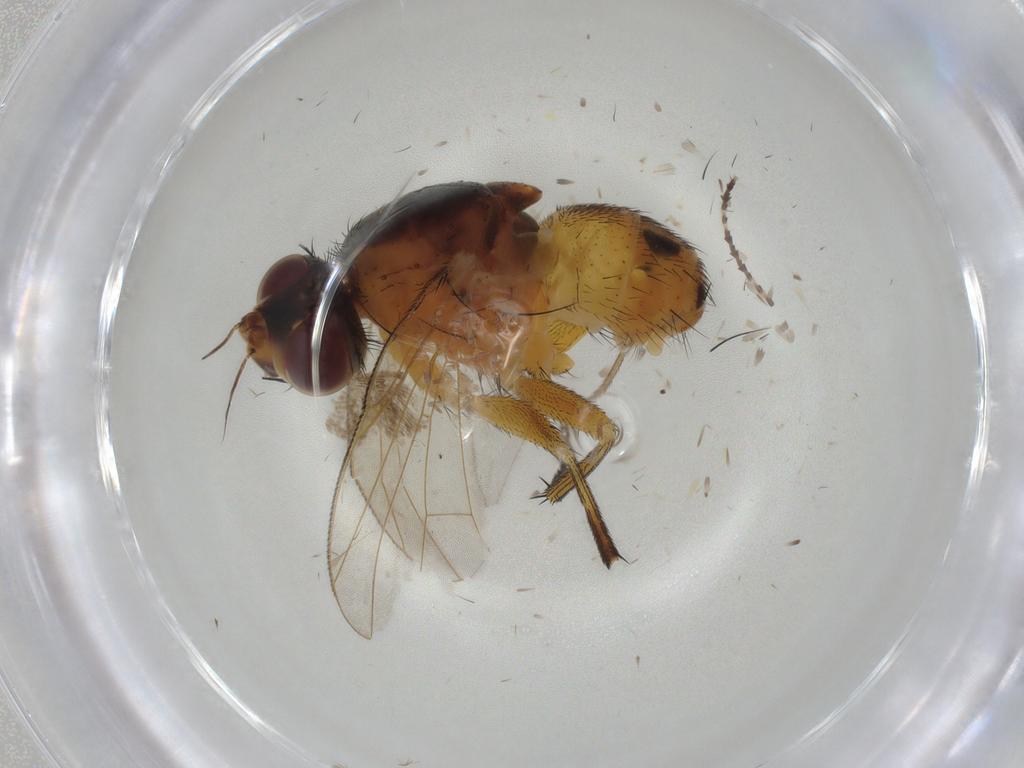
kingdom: Animalia
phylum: Arthropoda
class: Insecta
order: Diptera
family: Muscidae
